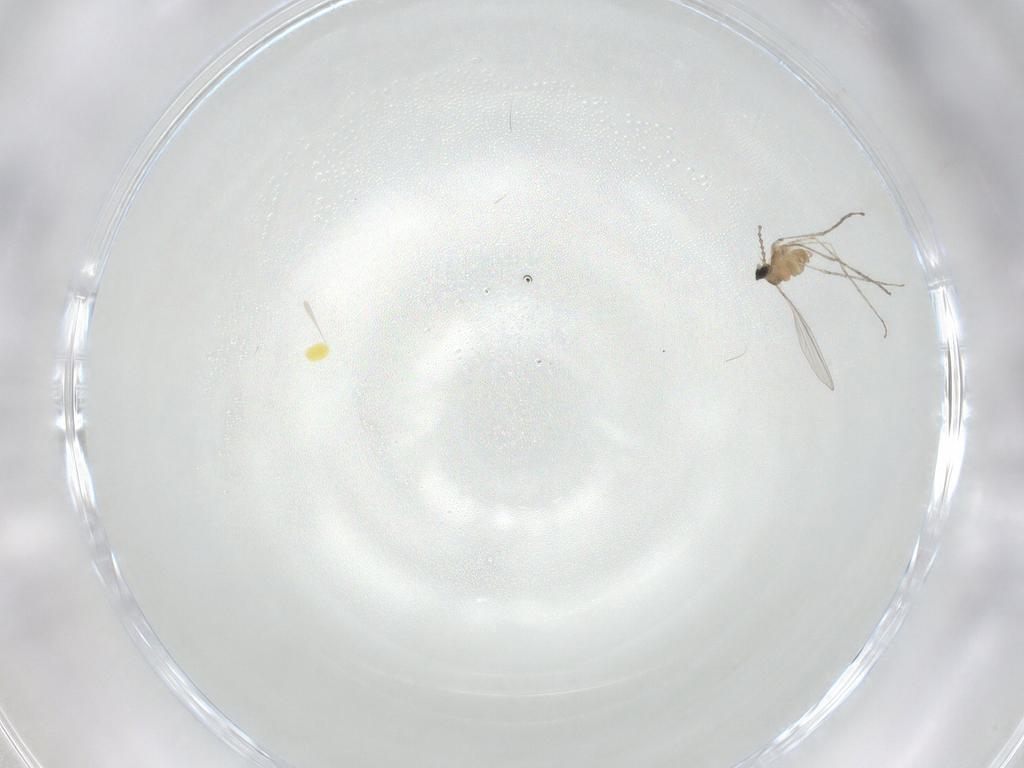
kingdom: Animalia
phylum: Arthropoda
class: Insecta
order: Diptera
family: Cecidomyiidae
